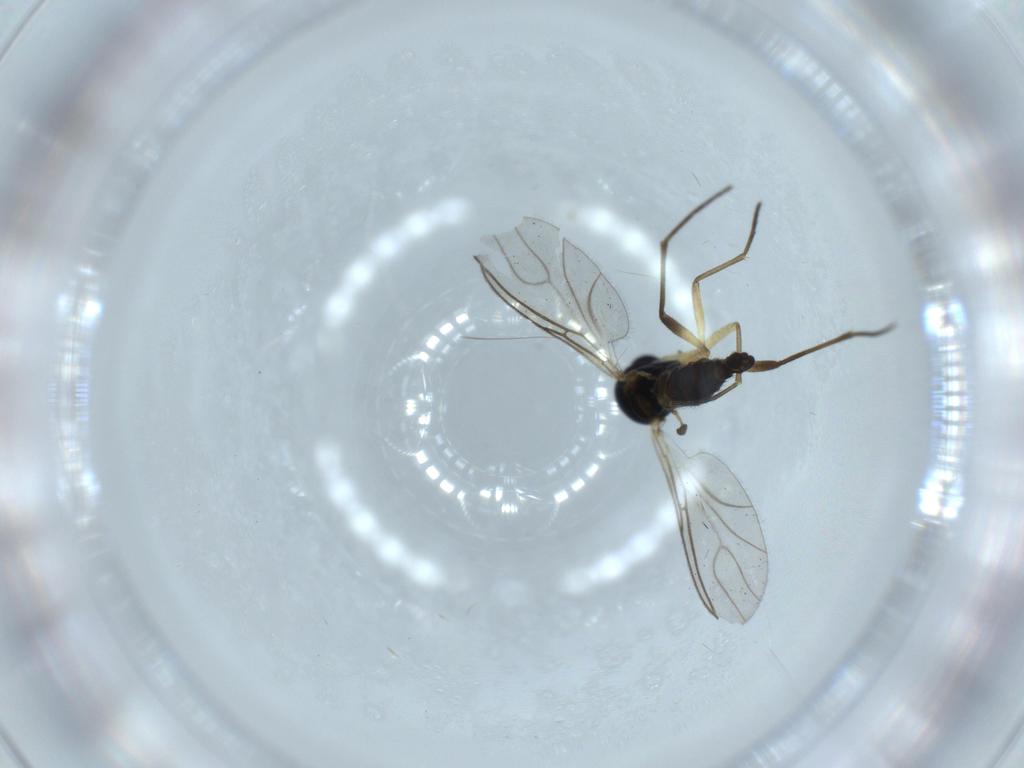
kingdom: Animalia
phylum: Arthropoda
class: Insecta
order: Diptera
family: Sciaridae
